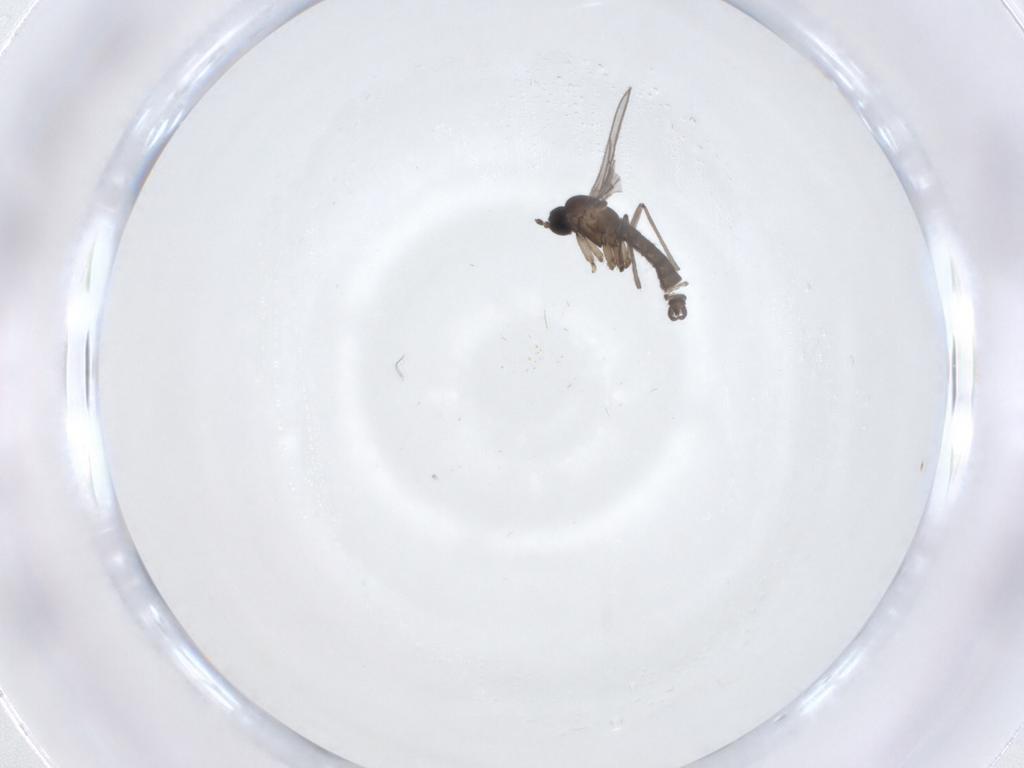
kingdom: Animalia
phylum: Arthropoda
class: Insecta
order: Diptera
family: Sciaridae
